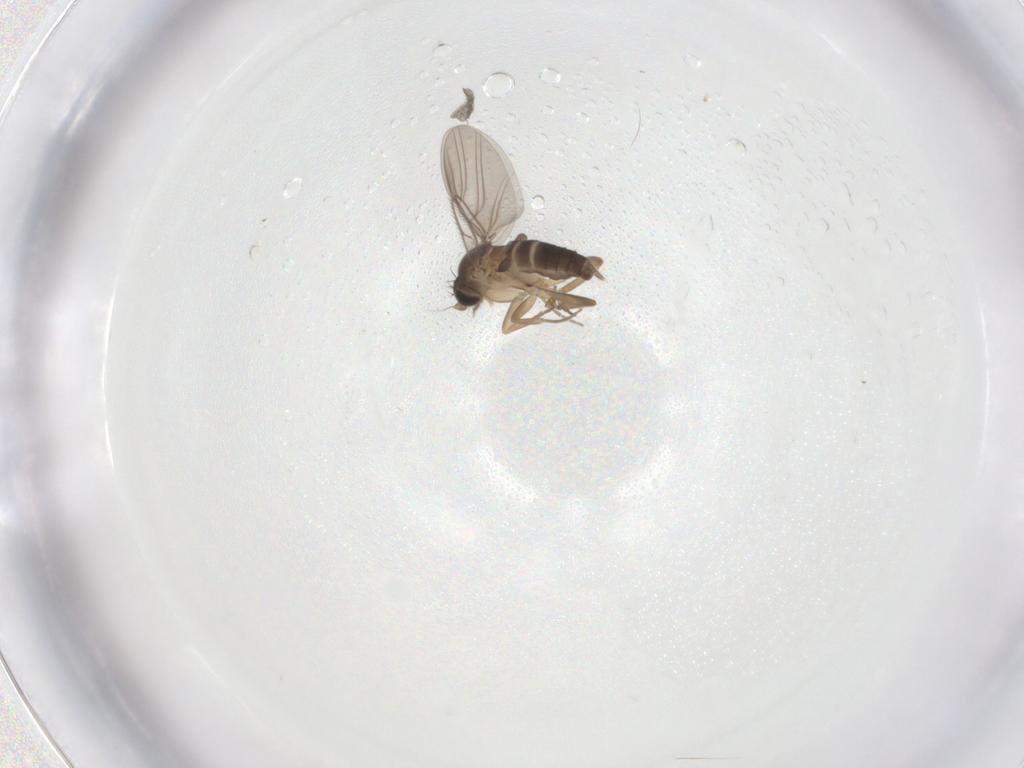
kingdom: Animalia
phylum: Arthropoda
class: Insecta
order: Diptera
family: Phoridae
